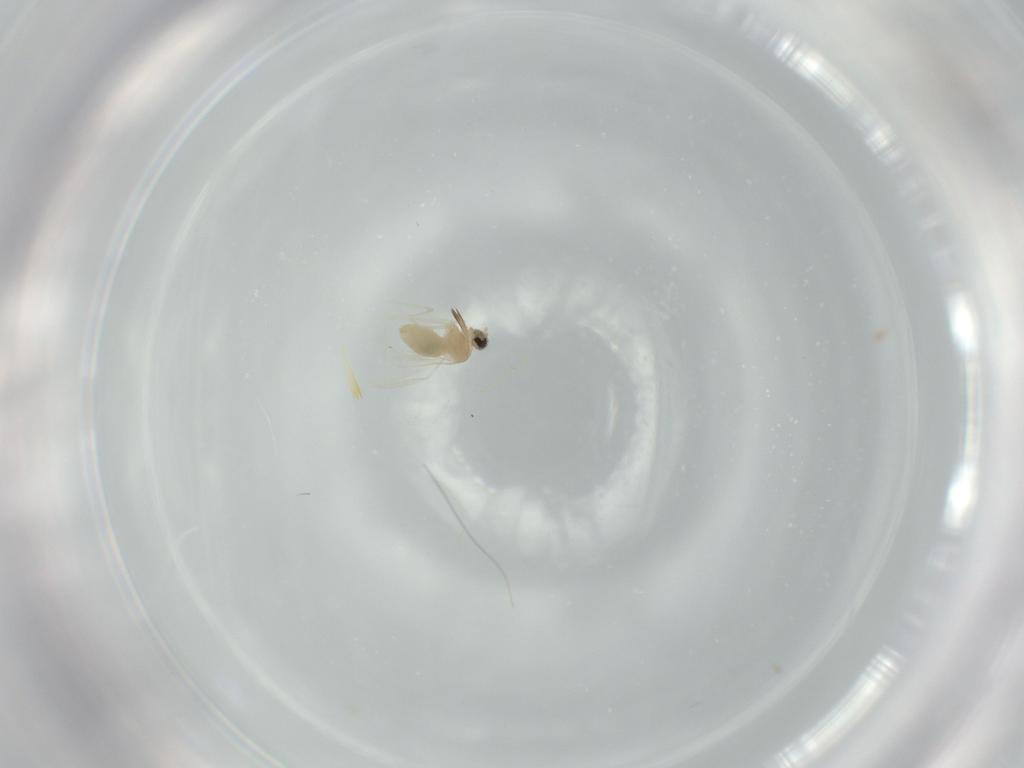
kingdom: Animalia
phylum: Arthropoda
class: Insecta
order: Diptera
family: Cecidomyiidae
